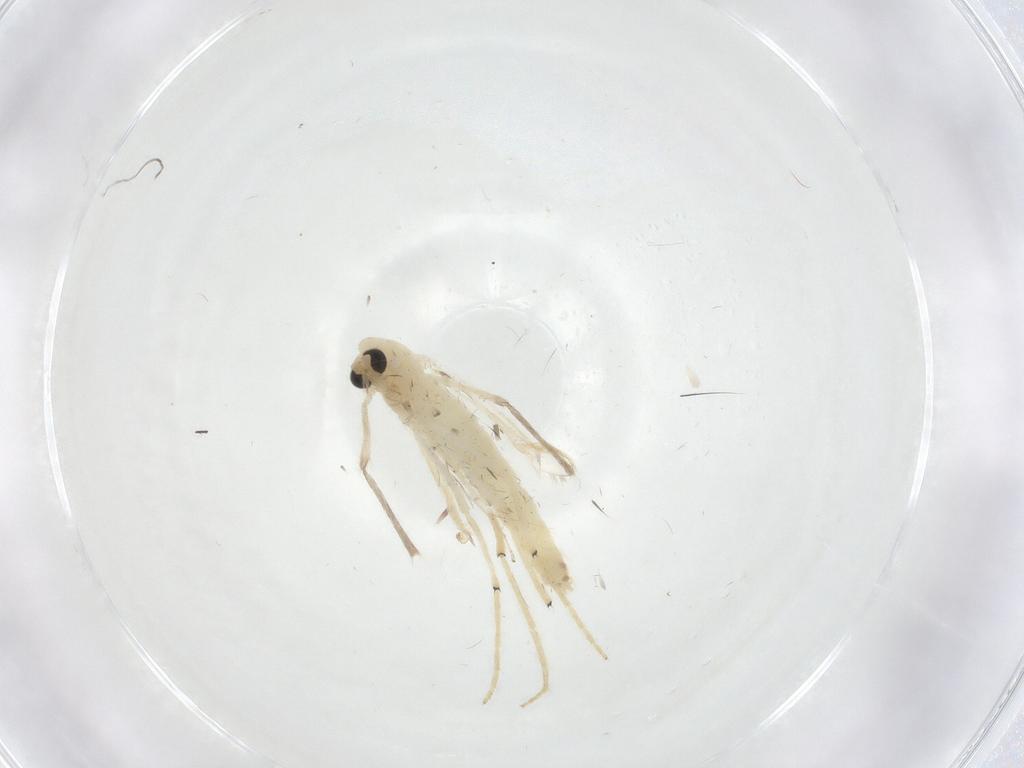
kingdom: Animalia
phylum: Arthropoda
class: Insecta
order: Diptera
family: Chironomidae
